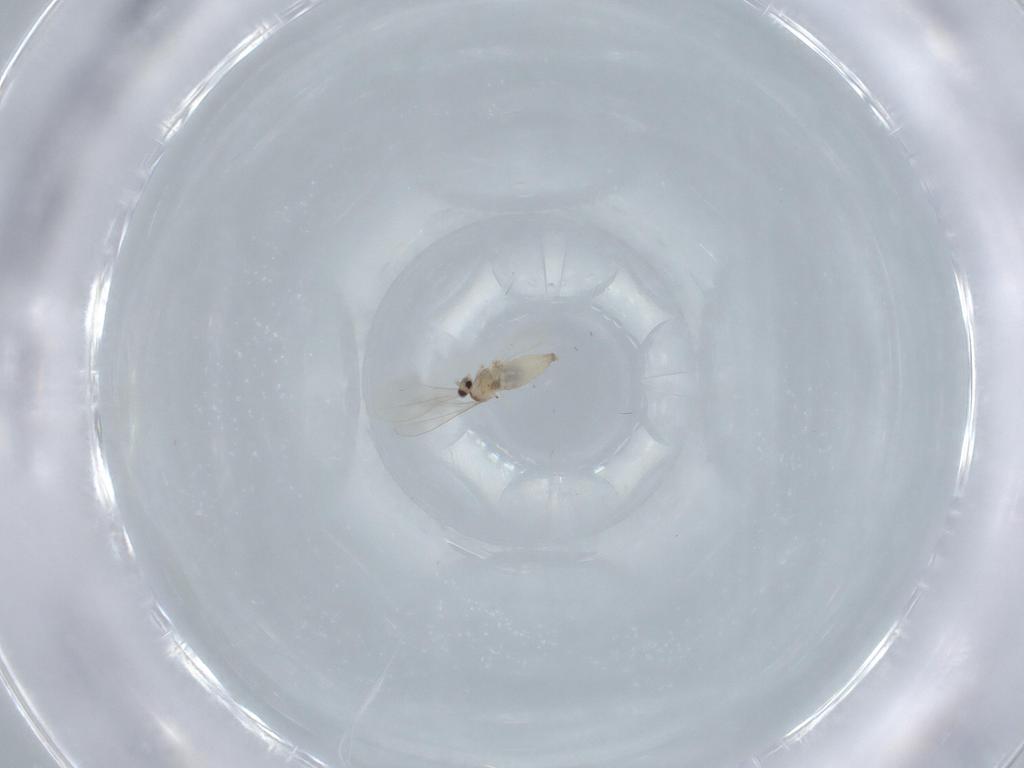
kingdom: Animalia
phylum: Arthropoda
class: Insecta
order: Diptera
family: Cecidomyiidae
